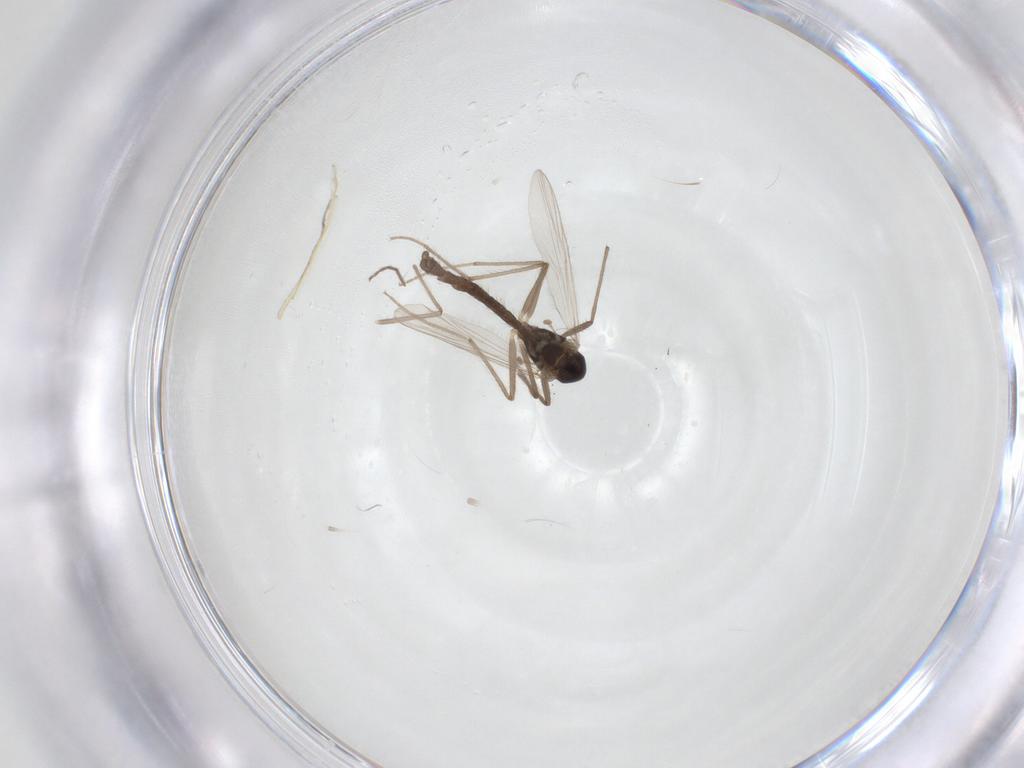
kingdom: Animalia
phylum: Arthropoda
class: Insecta
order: Diptera
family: Chironomidae
